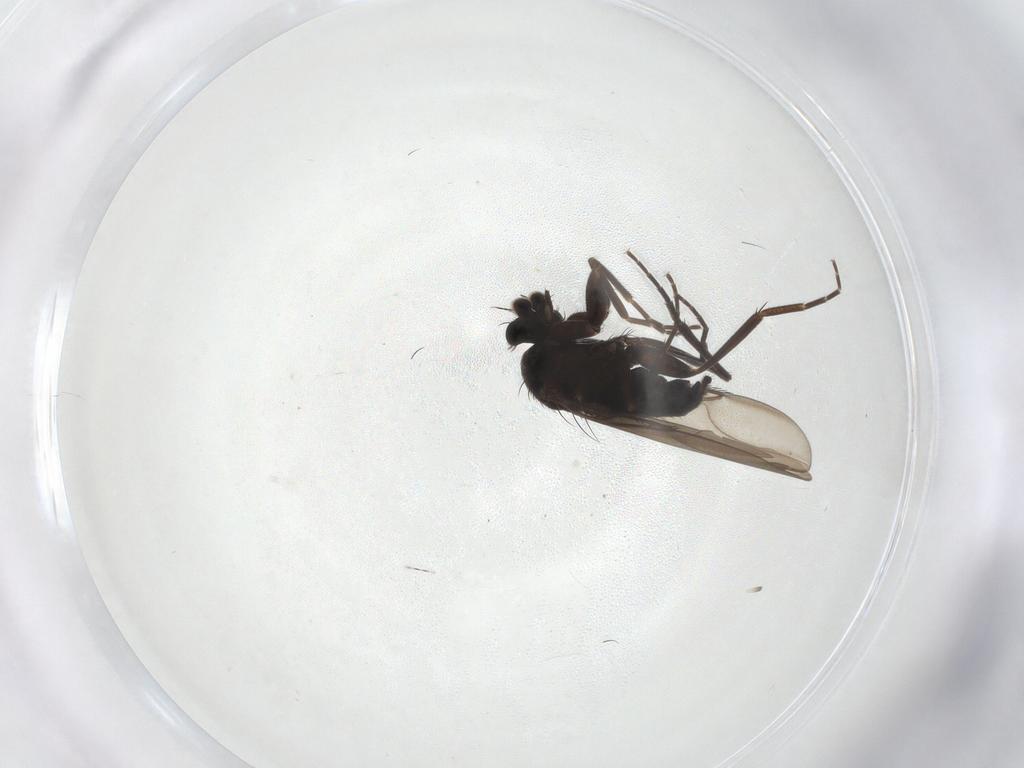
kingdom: Animalia
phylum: Arthropoda
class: Insecta
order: Diptera
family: Phoridae
